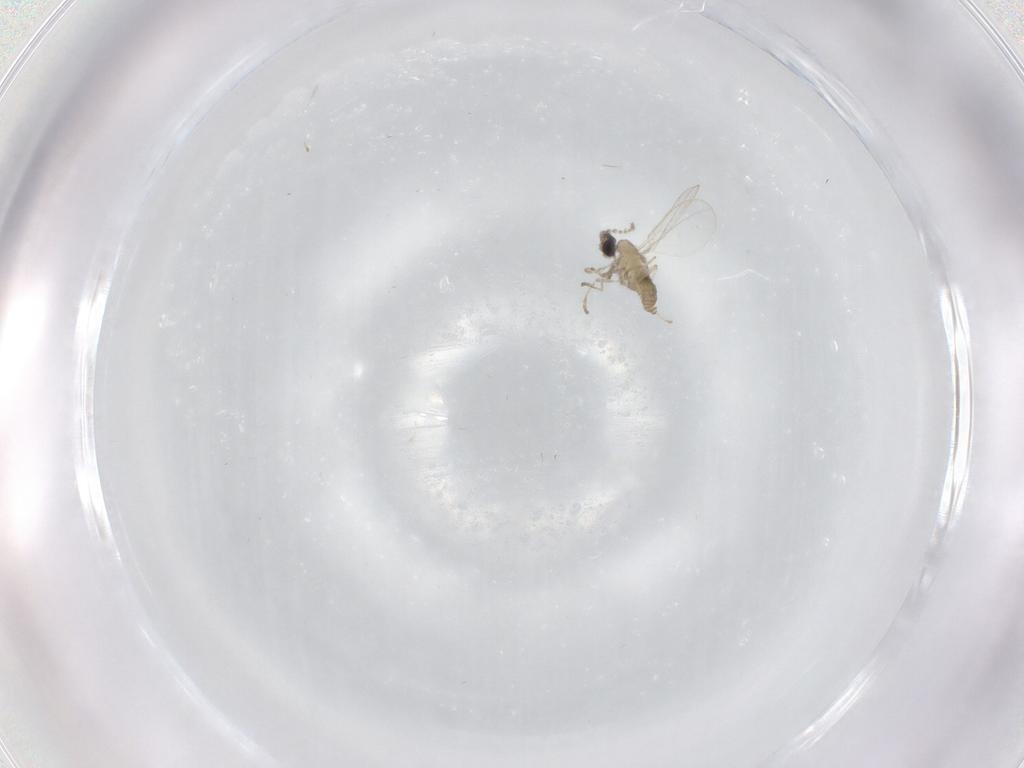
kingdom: Animalia
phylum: Arthropoda
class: Insecta
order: Diptera
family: Cecidomyiidae
